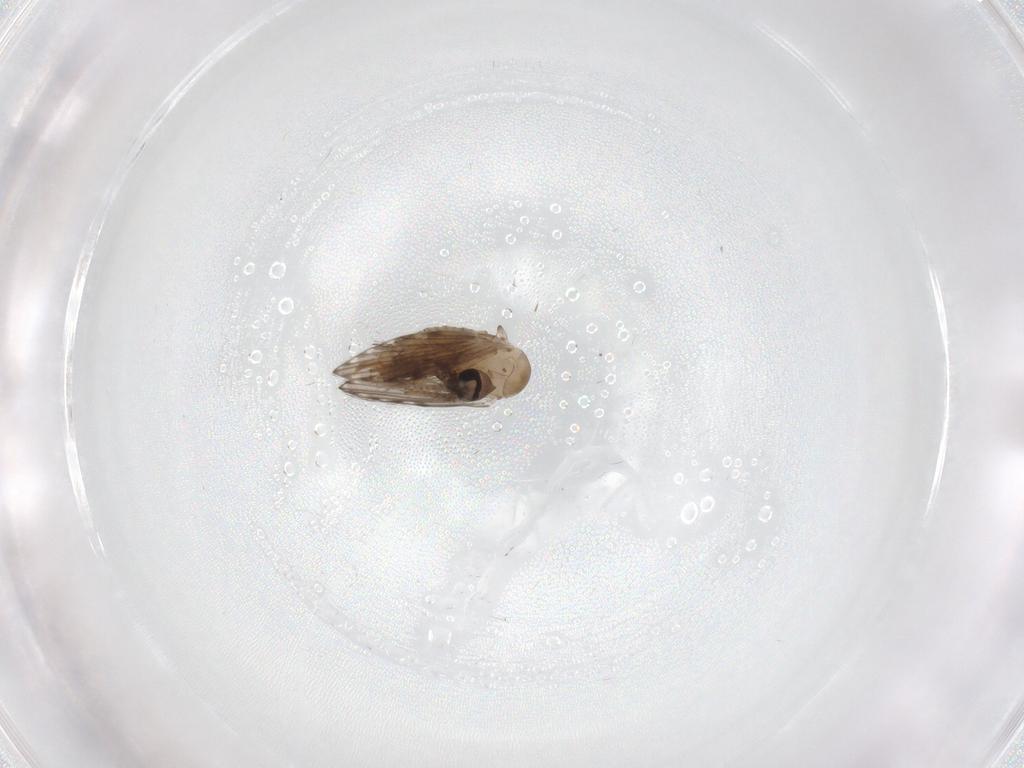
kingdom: Animalia
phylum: Arthropoda
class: Insecta
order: Diptera
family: Psychodidae
